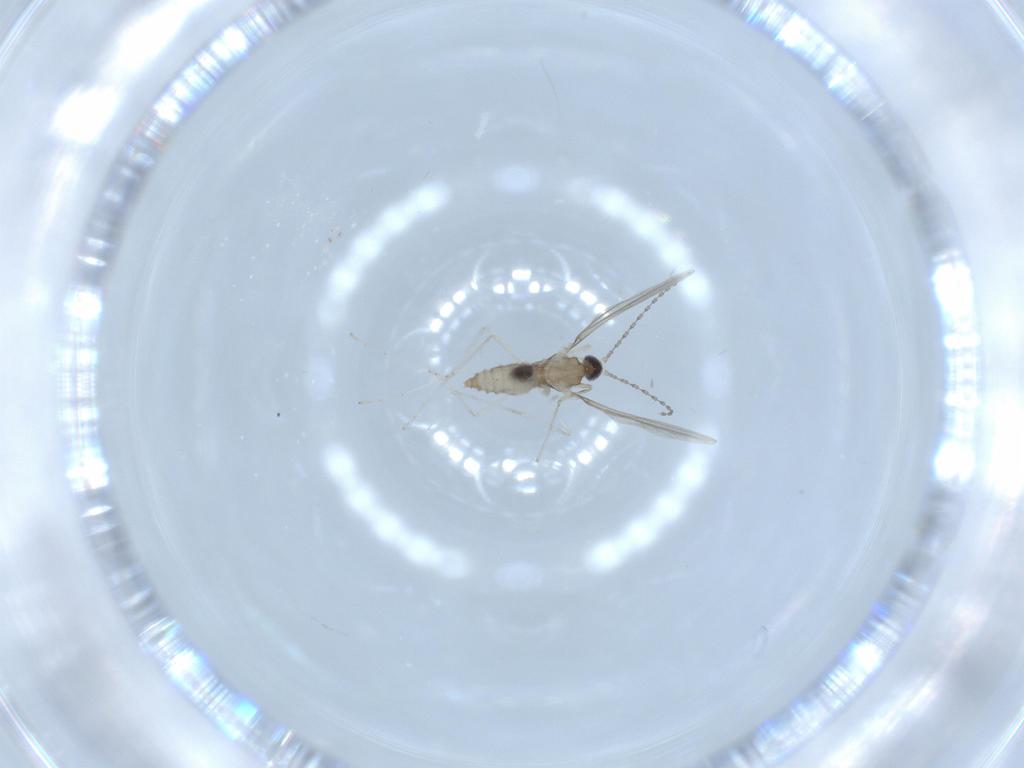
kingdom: Animalia
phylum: Arthropoda
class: Insecta
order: Diptera
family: Cecidomyiidae
